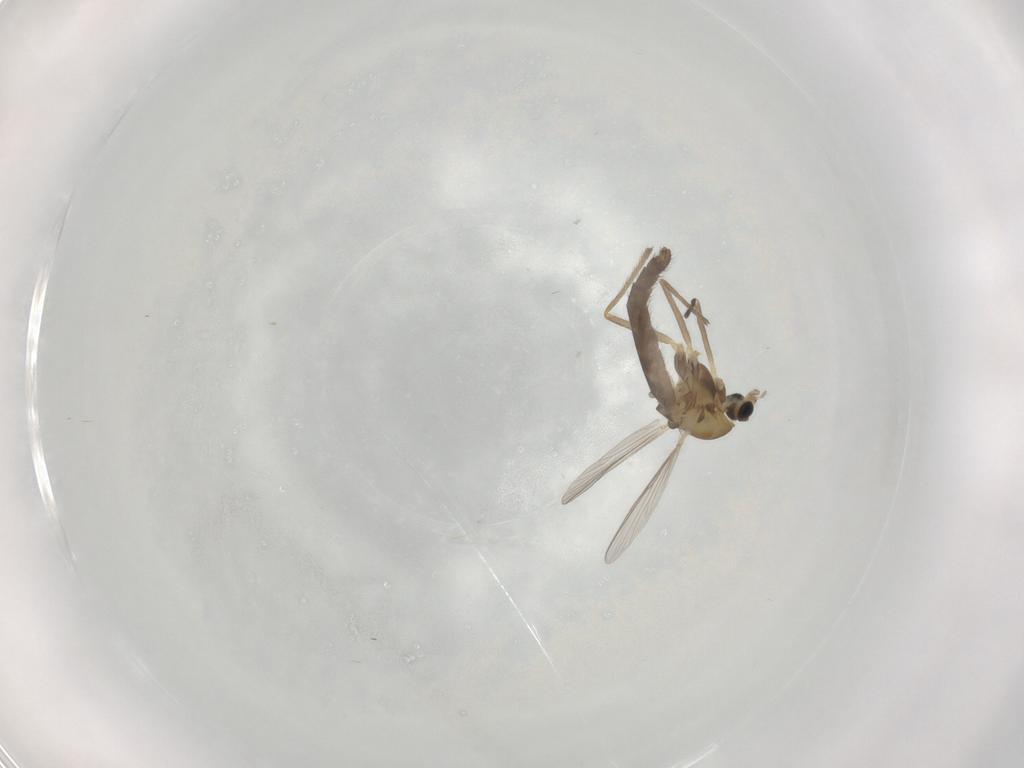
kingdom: Animalia
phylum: Arthropoda
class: Insecta
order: Diptera
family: Chironomidae
